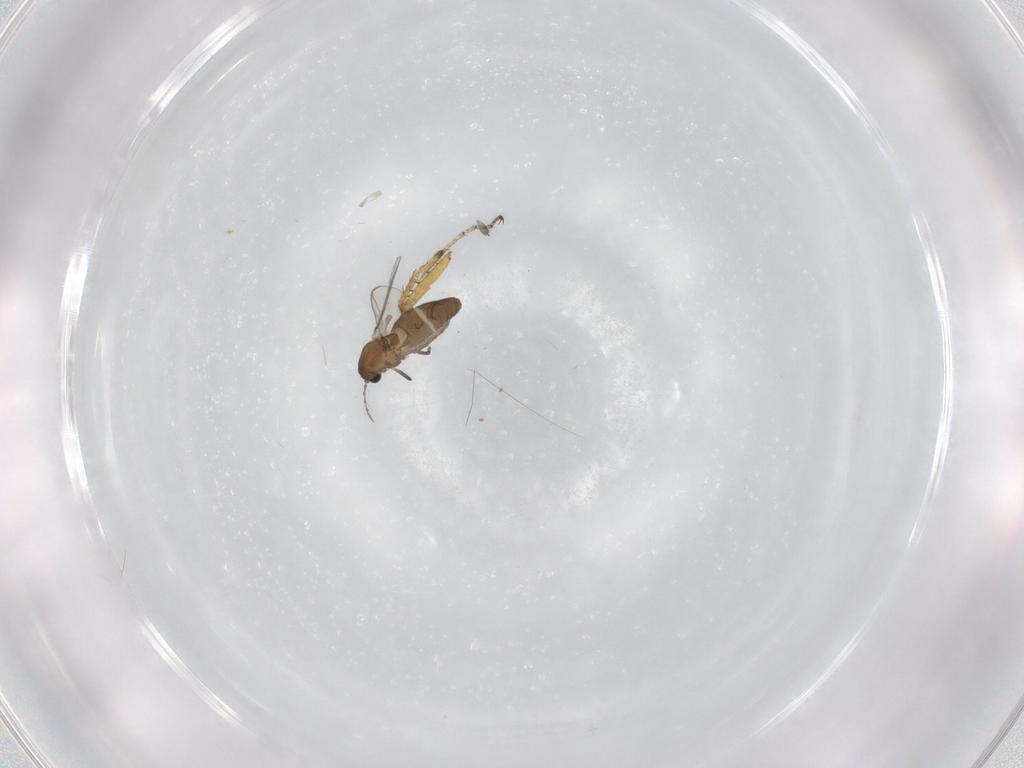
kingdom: Animalia
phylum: Arthropoda
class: Insecta
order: Diptera
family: Chironomidae
